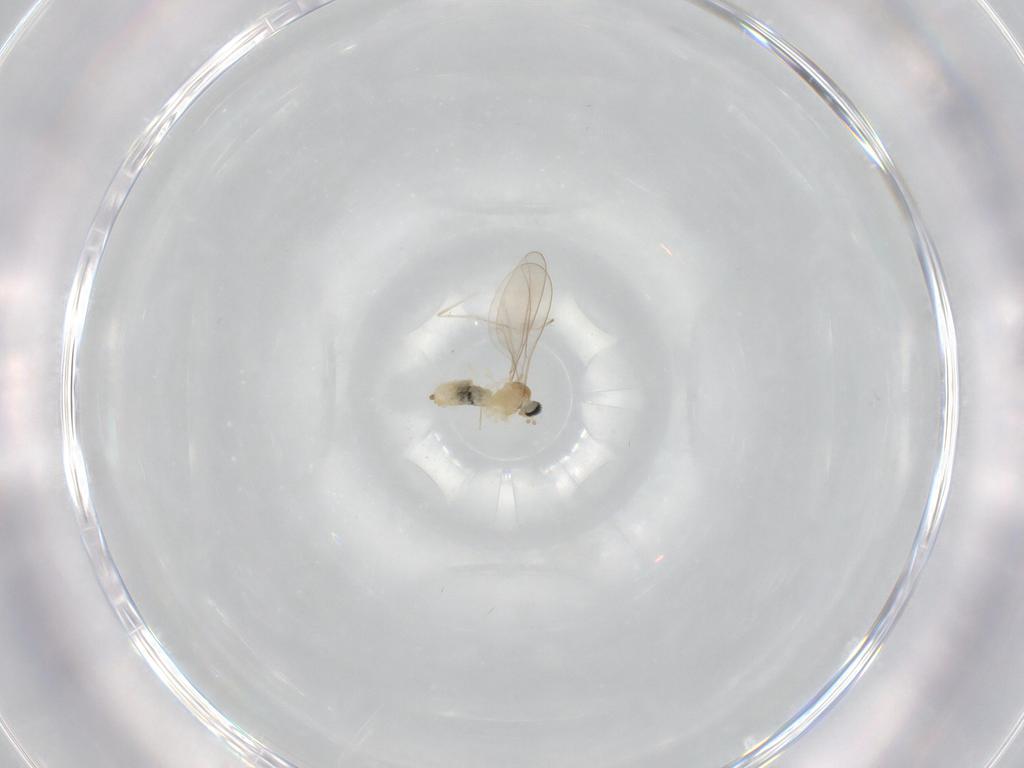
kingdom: Animalia
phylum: Arthropoda
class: Insecta
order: Diptera
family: Cecidomyiidae
